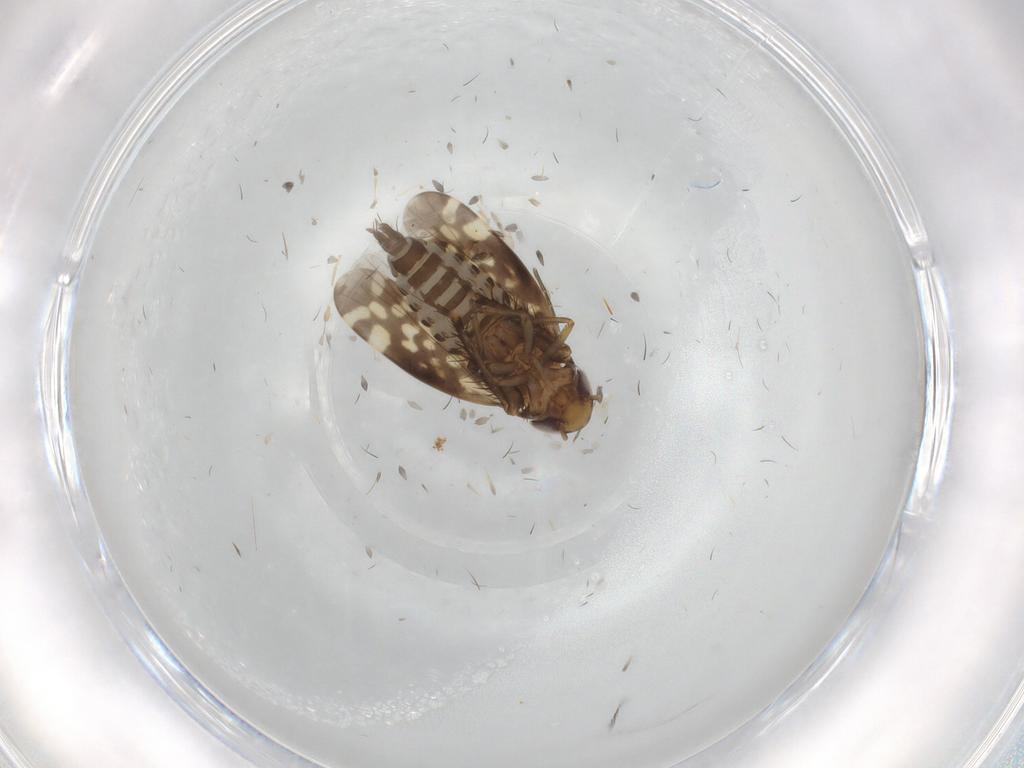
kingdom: Animalia
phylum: Arthropoda
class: Insecta
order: Hemiptera
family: Cicadellidae
